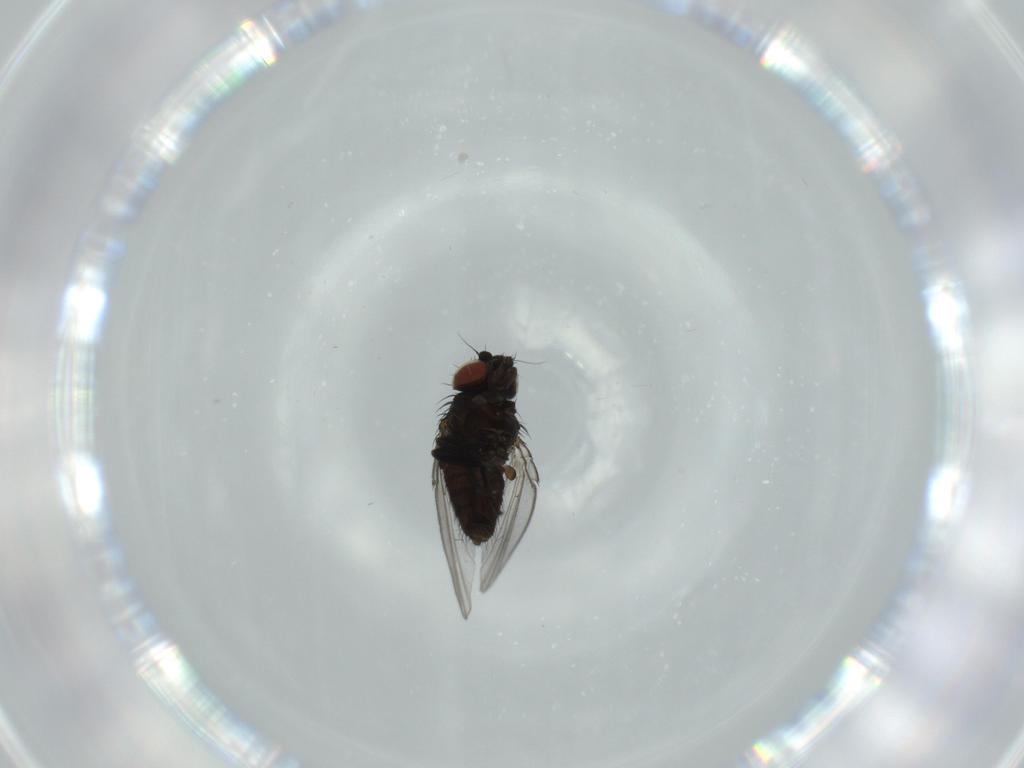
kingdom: Animalia
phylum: Arthropoda
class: Insecta
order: Diptera
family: Milichiidae
